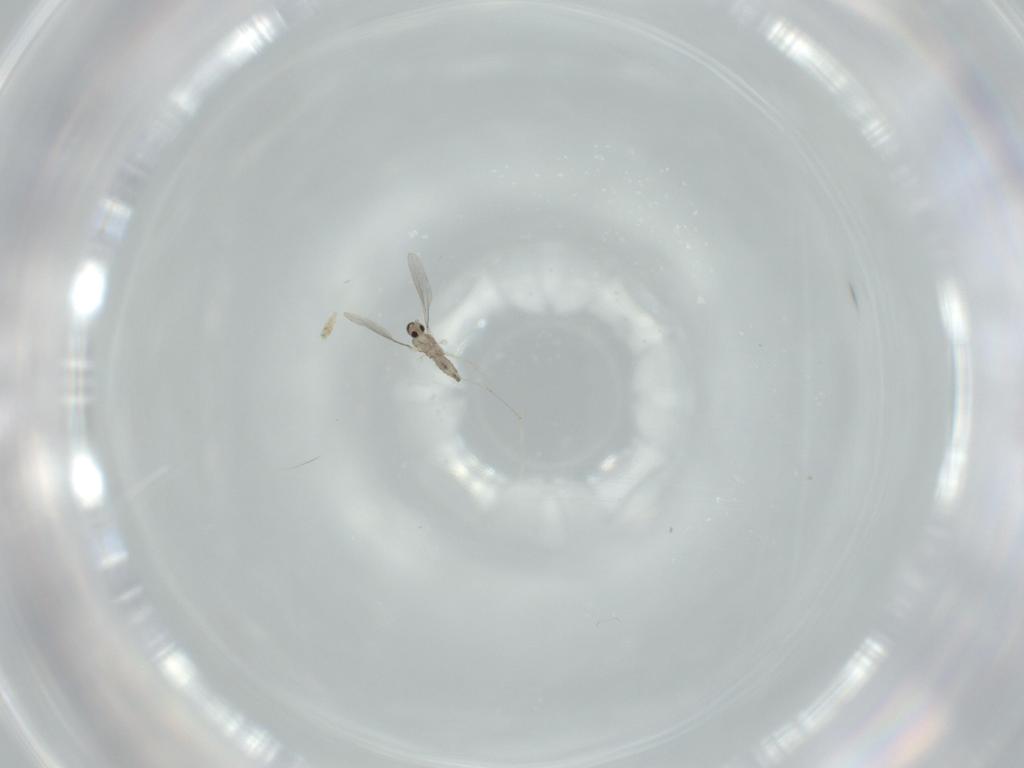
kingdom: Animalia
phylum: Arthropoda
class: Insecta
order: Diptera
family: Cecidomyiidae
